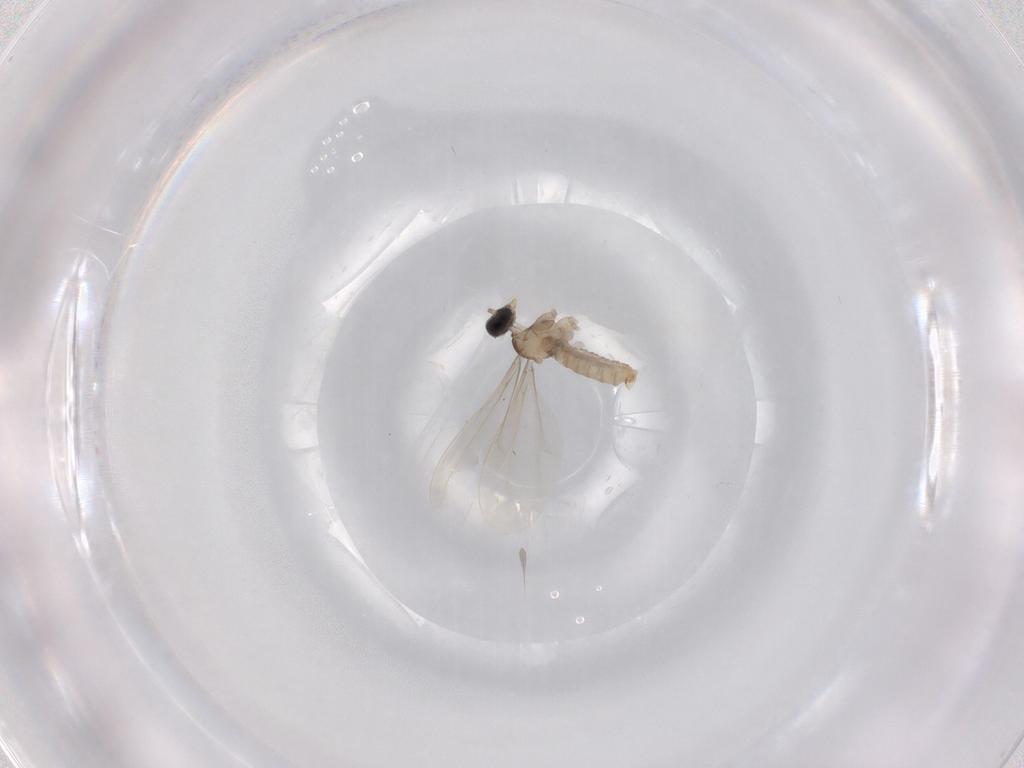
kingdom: Animalia
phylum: Arthropoda
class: Insecta
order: Diptera
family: Cecidomyiidae
